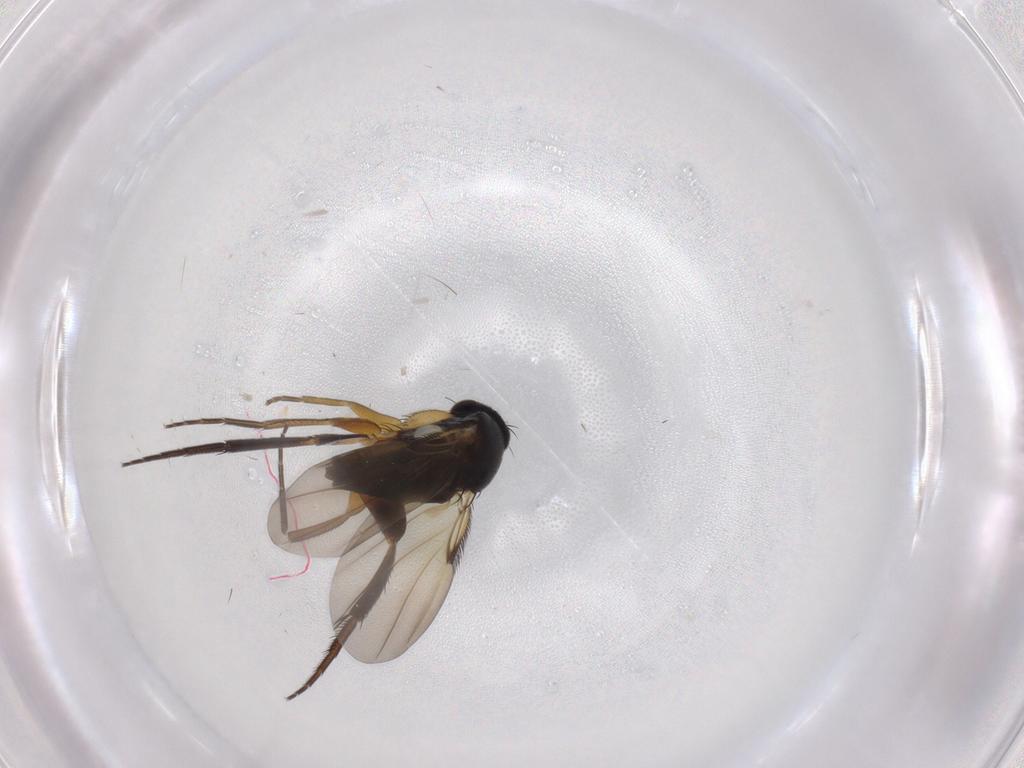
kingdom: Animalia
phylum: Arthropoda
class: Insecta
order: Diptera
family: Phoridae
